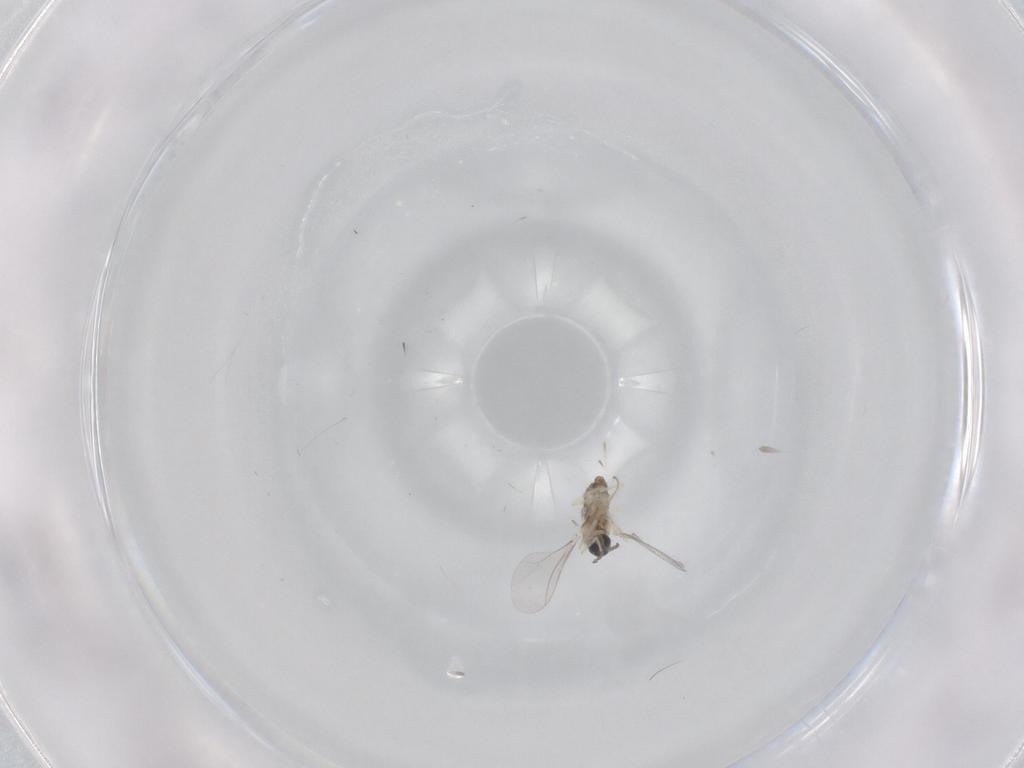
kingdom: Animalia
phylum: Arthropoda
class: Insecta
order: Diptera
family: Cecidomyiidae
